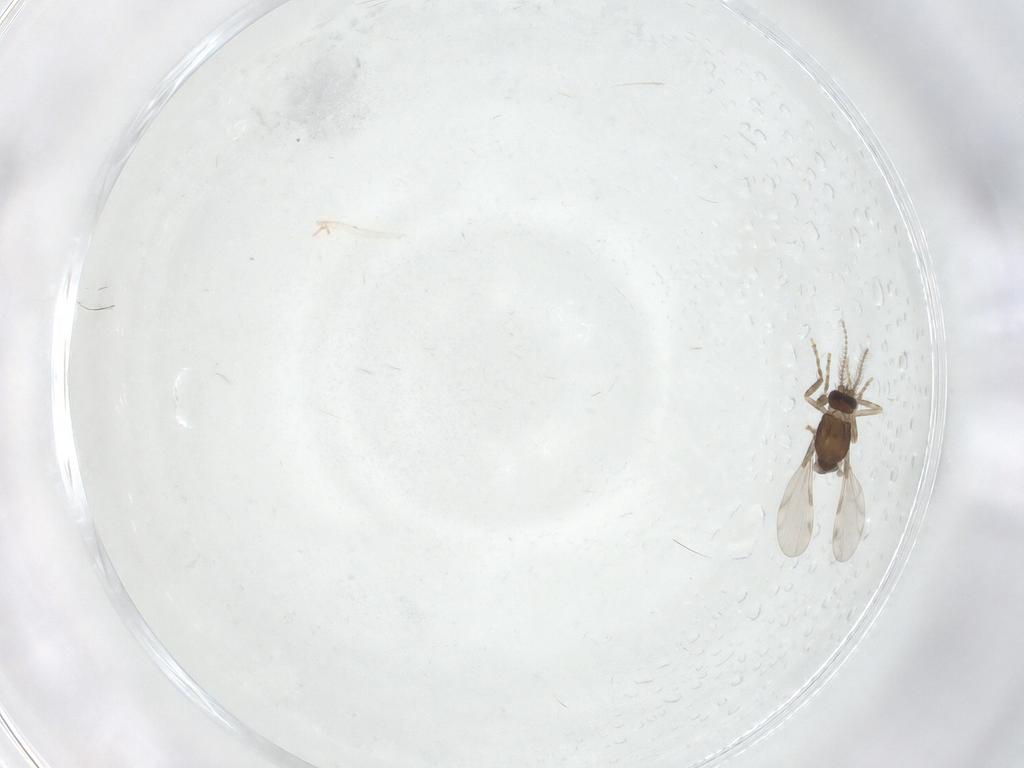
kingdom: Animalia
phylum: Arthropoda
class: Insecta
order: Diptera
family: Ceratopogonidae
